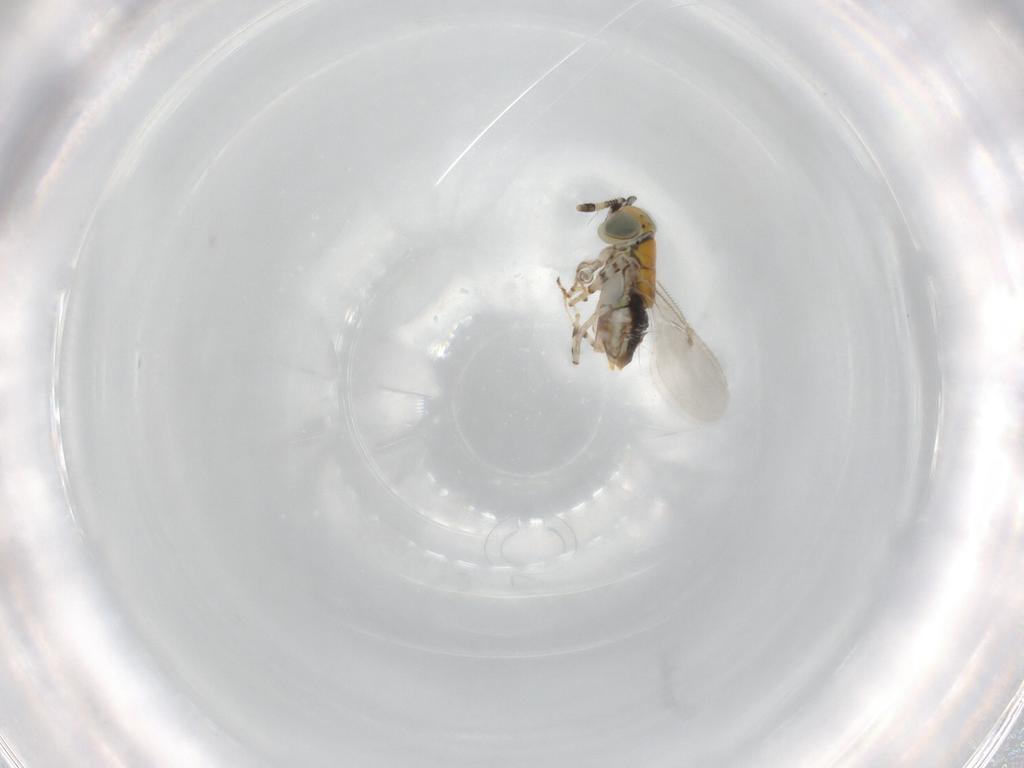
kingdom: Animalia
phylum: Arthropoda
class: Insecta
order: Hymenoptera
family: Encyrtidae
